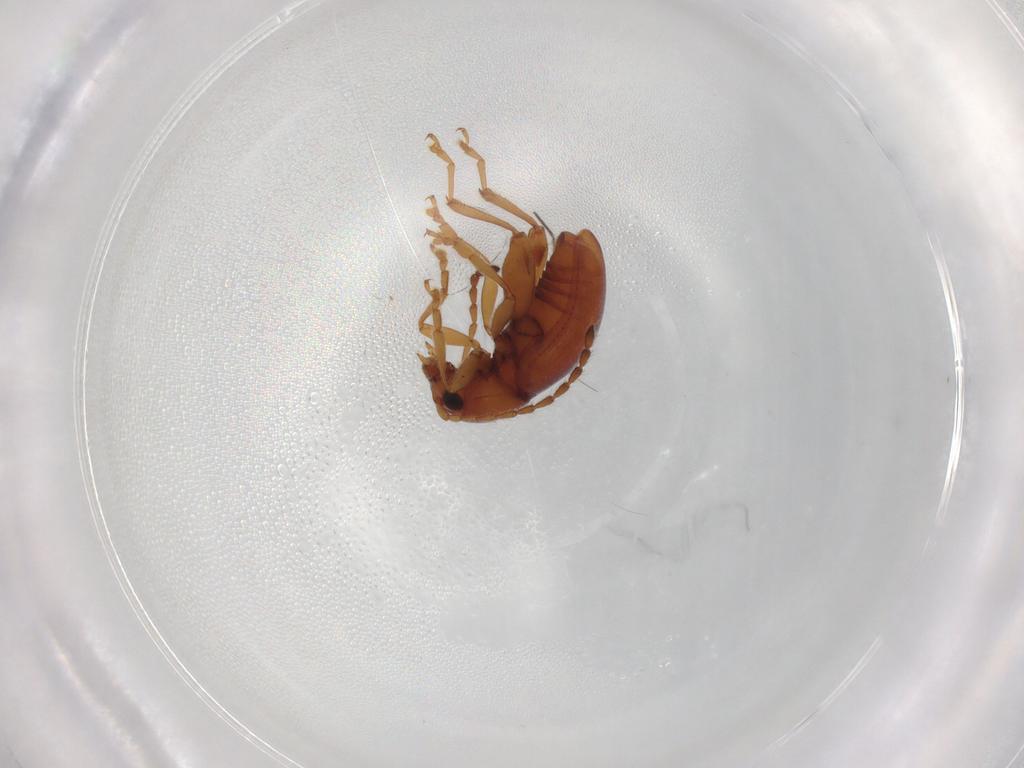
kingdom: Animalia
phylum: Arthropoda
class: Insecta
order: Coleoptera
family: Chrysomelidae
